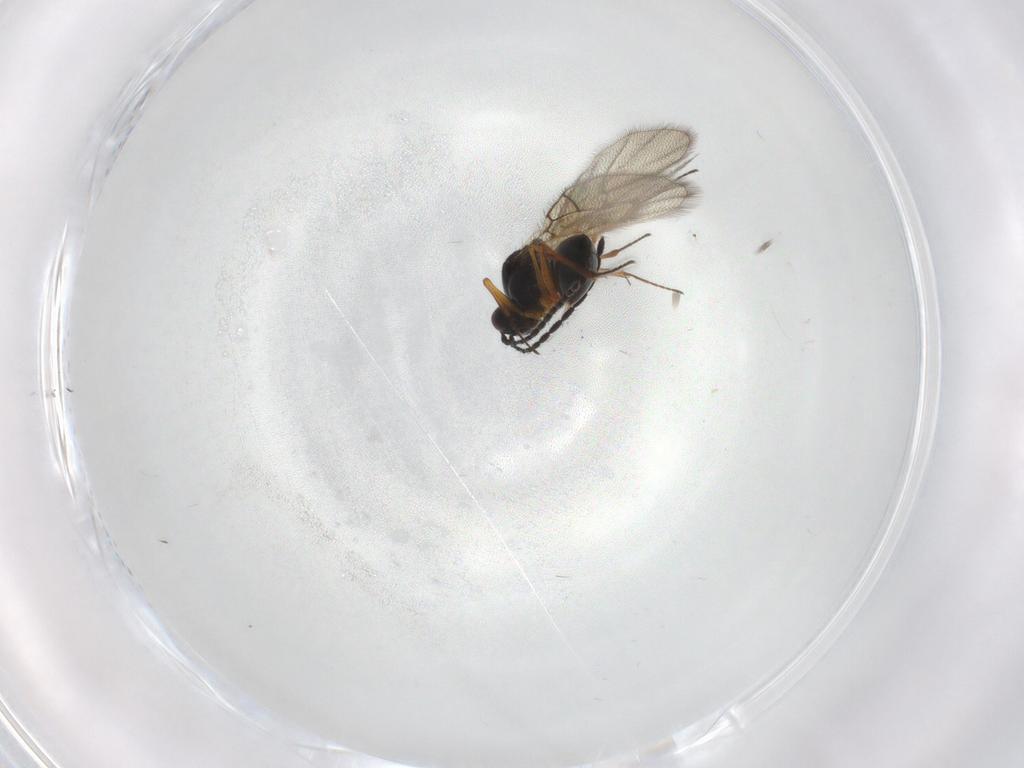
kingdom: Animalia
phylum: Arthropoda
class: Insecta
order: Hymenoptera
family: Figitidae
